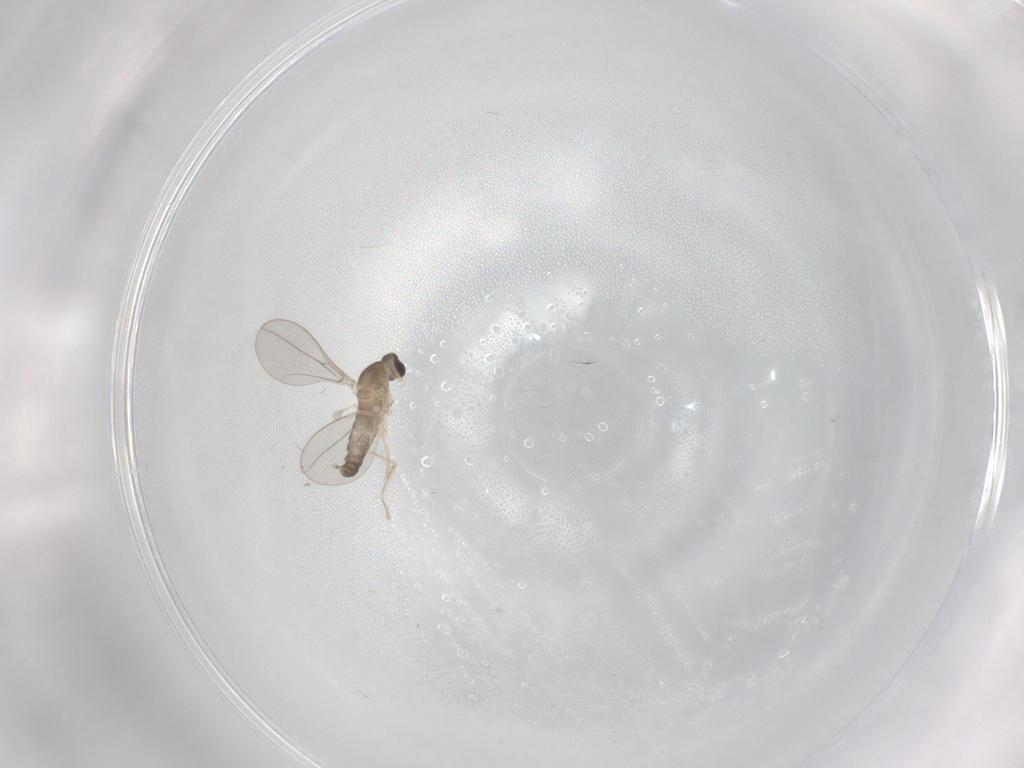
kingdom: Animalia
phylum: Arthropoda
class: Insecta
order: Diptera
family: Cecidomyiidae
